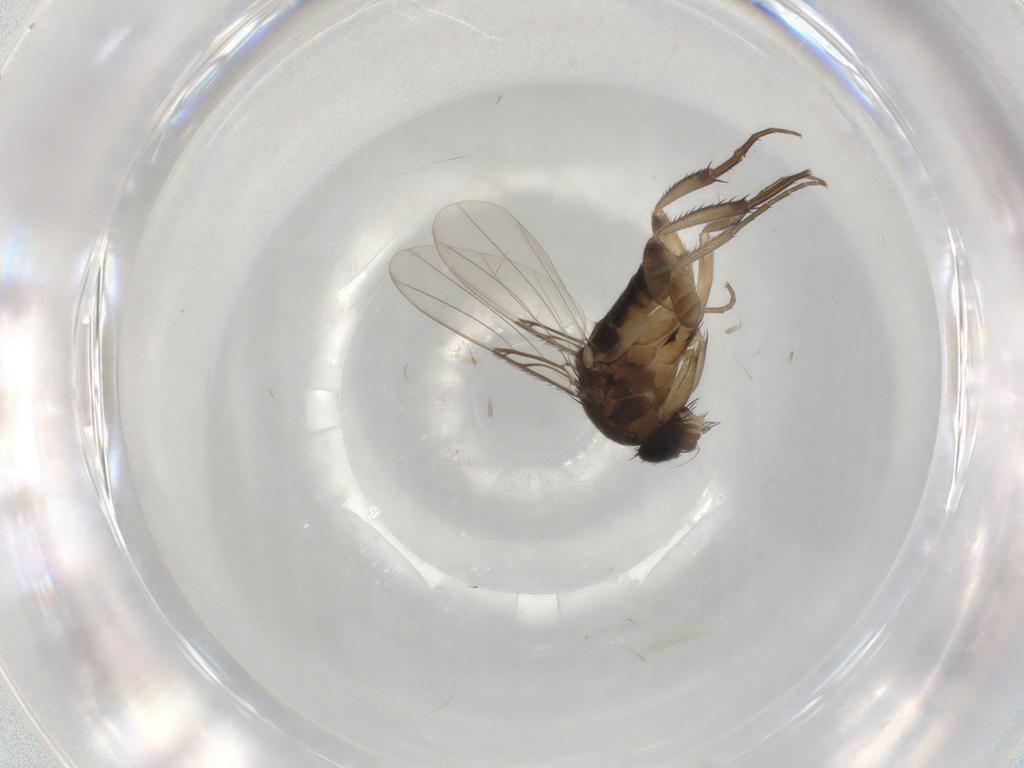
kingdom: Animalia
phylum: Arthropoda
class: Insecta
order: Diptera
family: Phoridae
